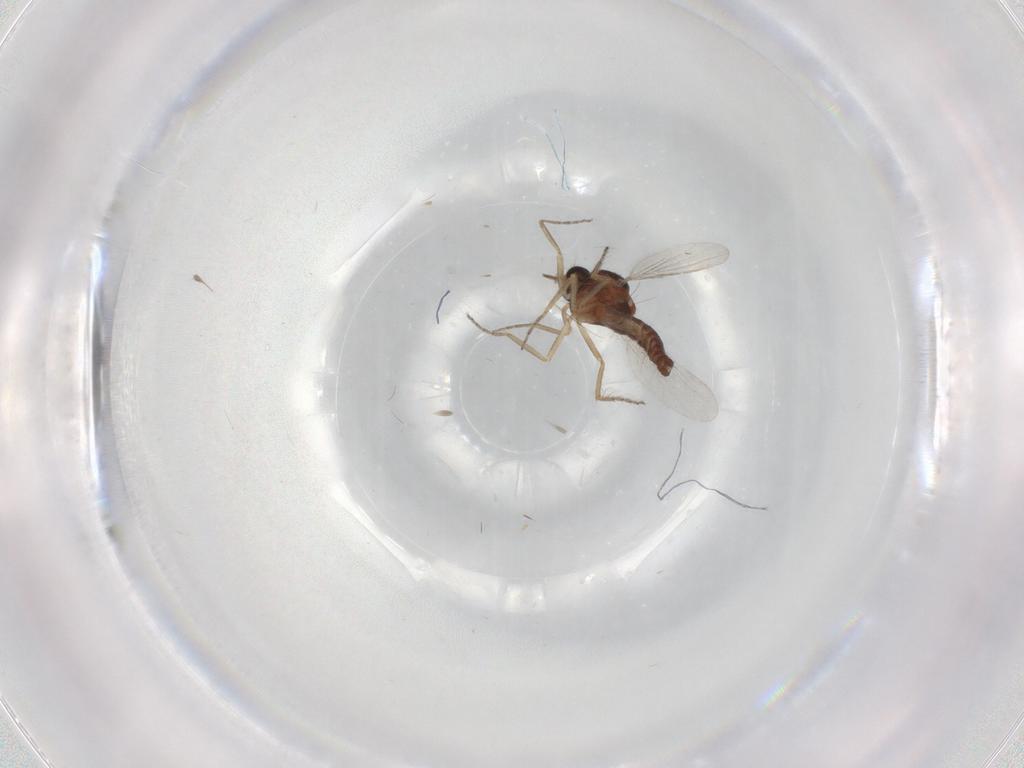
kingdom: Animalia
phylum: Arthropoda
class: Insecta
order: Diptera
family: Ceratopogonidae
